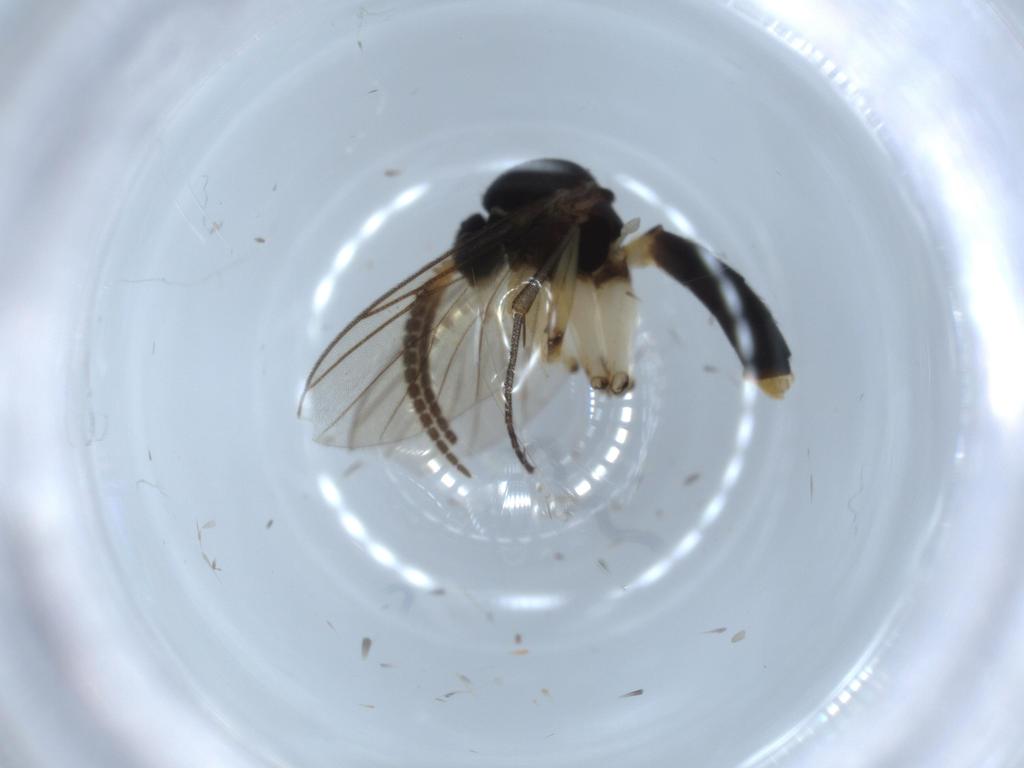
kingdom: Animalia
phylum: Arthropoda
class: Insecta
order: Diptera
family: Mycetophilidae
